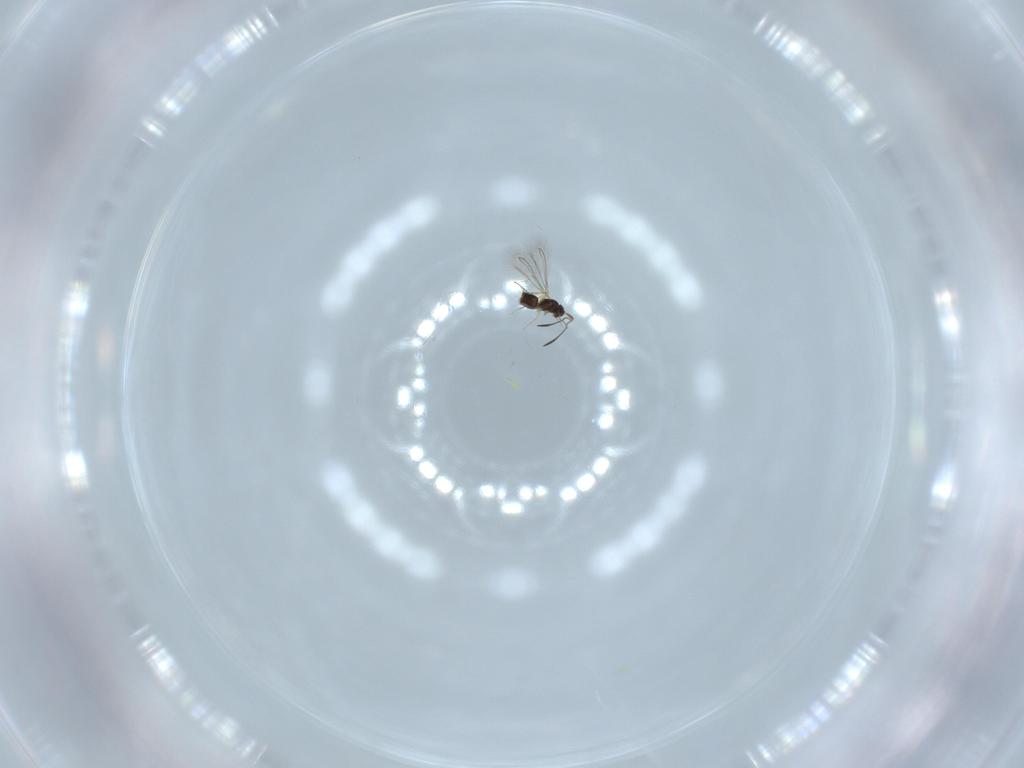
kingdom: Animalia
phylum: Arthropoda
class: Insecta
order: Hymenoptera
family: Mymaridae
